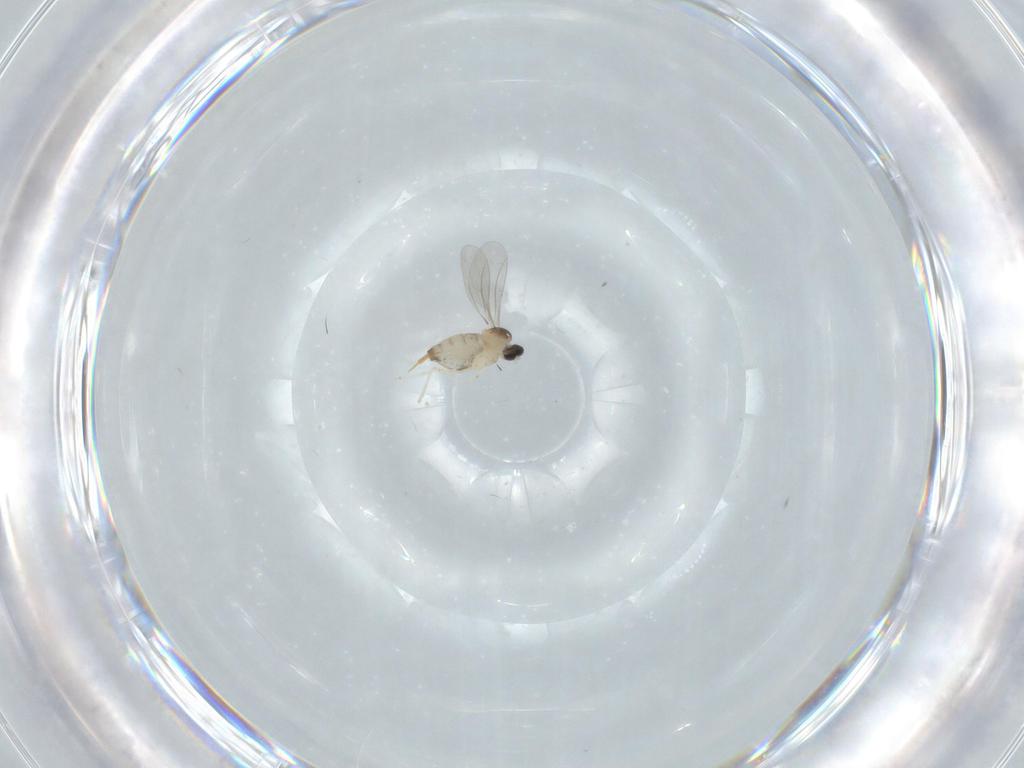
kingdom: Animalia
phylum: Arthropoda
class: Insecta
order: Diptera
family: Cecidomyiidae
